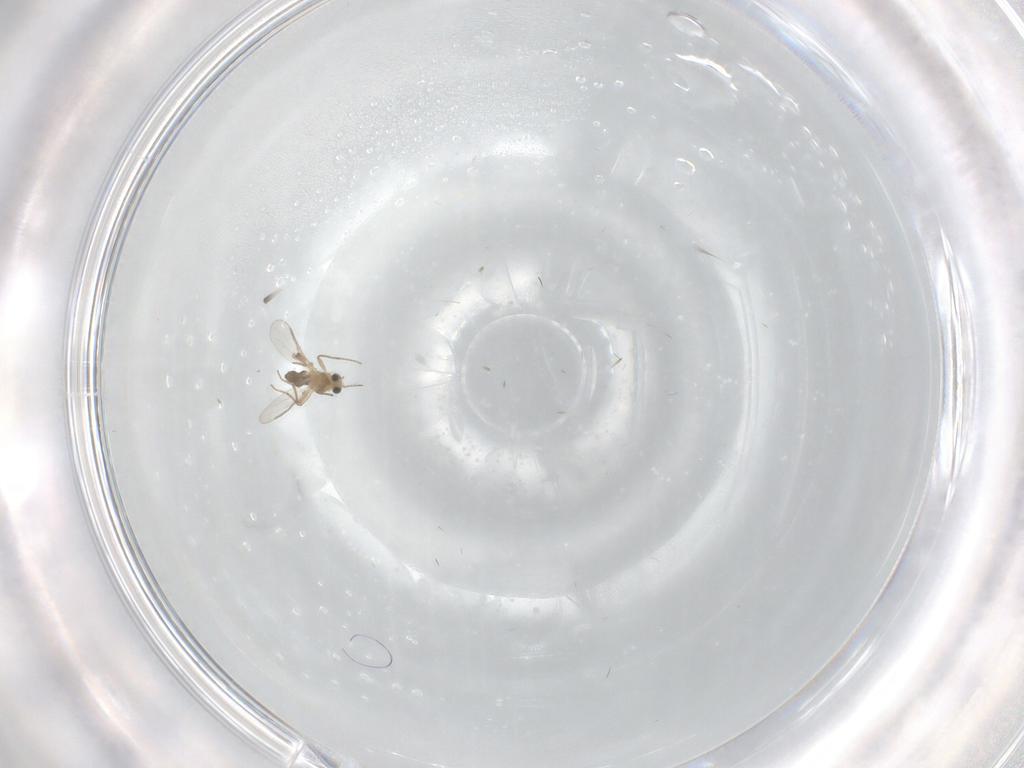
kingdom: Animalia
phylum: Arthropoda
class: Insecta
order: Diptera
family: Chironomidae
